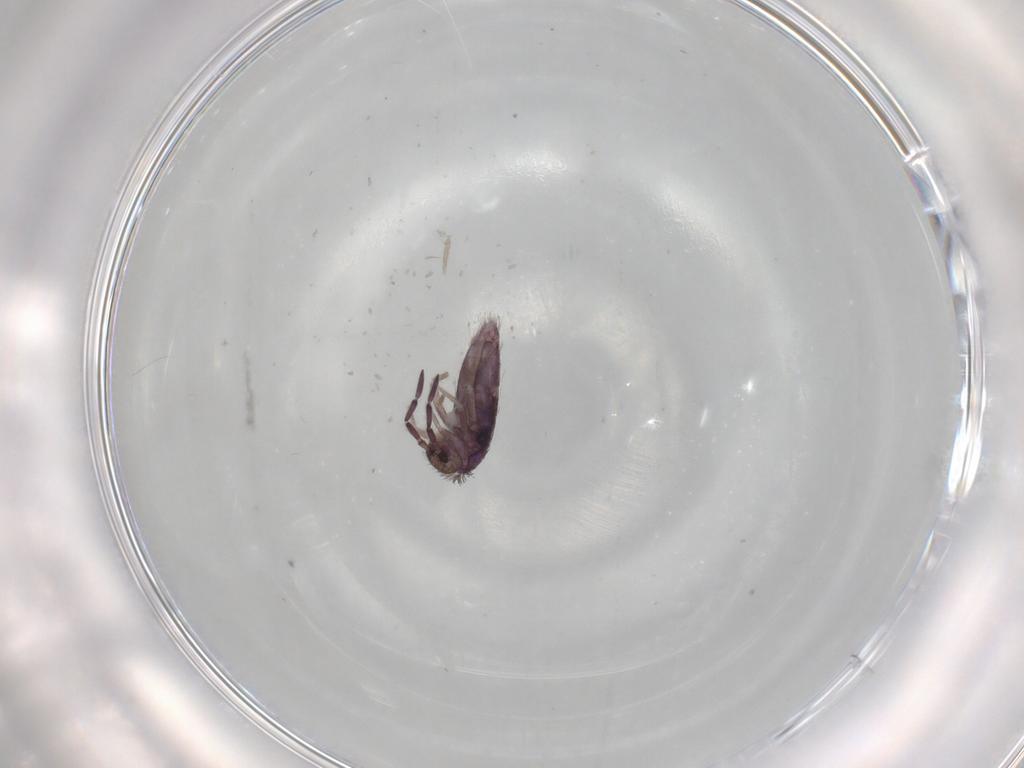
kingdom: Animalia
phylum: Arthropoda
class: Collembola
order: Entomobryomorpha
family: Entomobryidae
